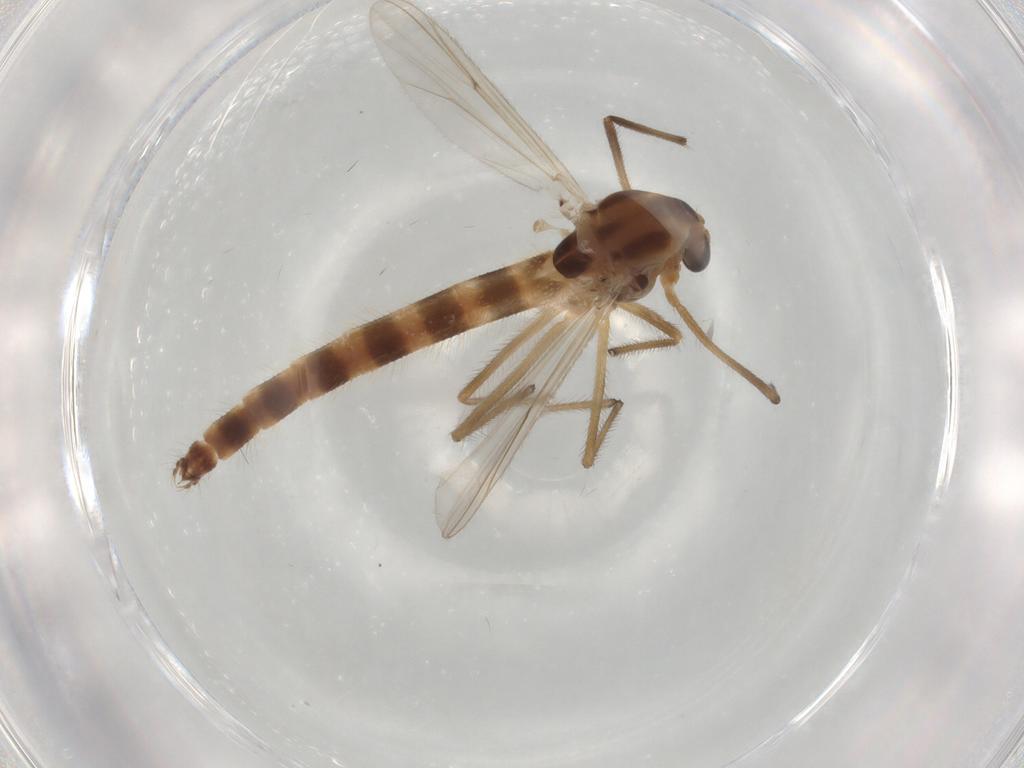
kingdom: Animalia
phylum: Arthropoda
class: Insecta
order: Diptera
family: Chironomidae
